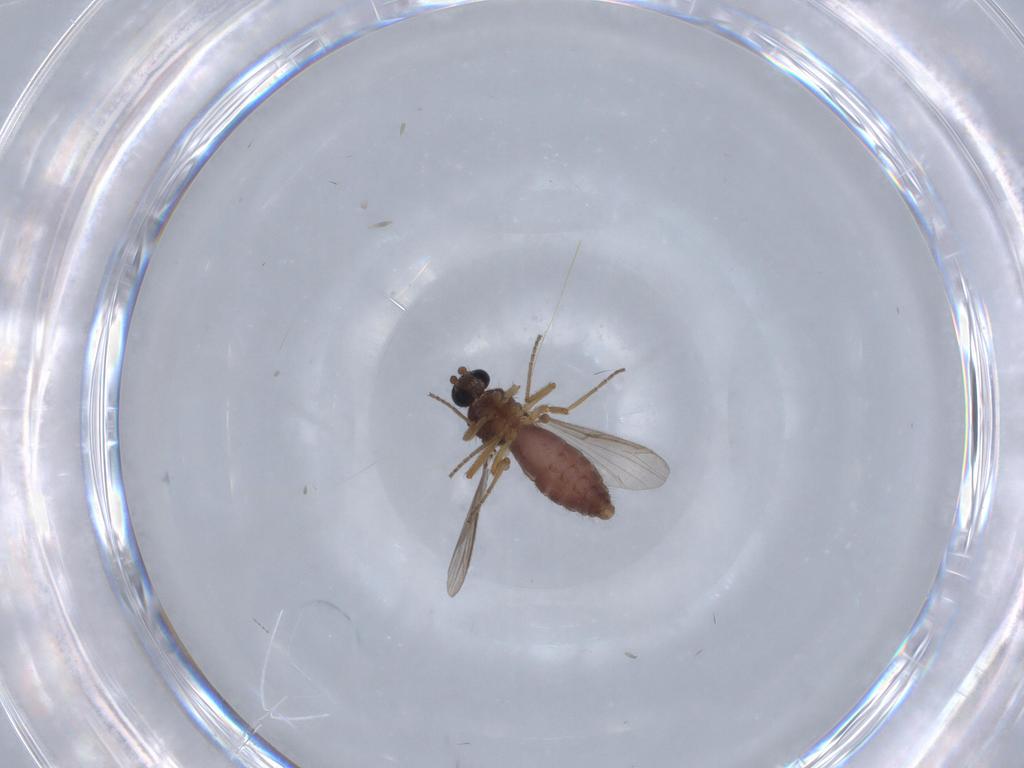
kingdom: Animalia
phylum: Arthropoda
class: Insecta
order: Diptera
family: Ceratopogonidae
